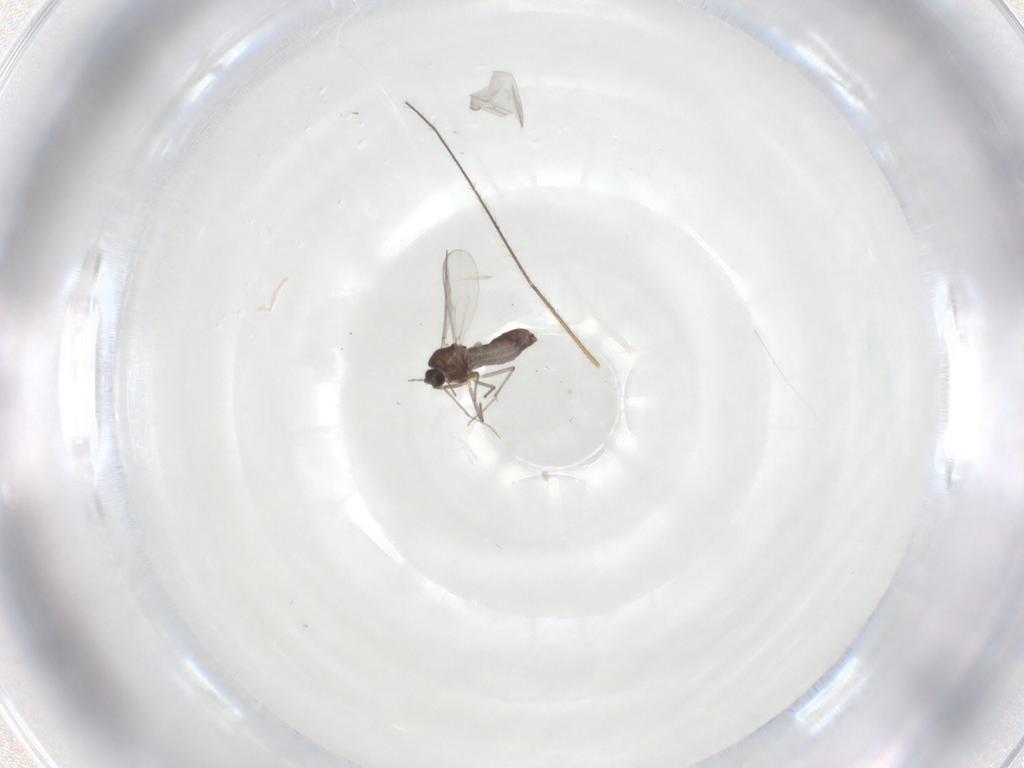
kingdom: Animalia
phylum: Arthropoda
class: Insecta
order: Diptera
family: Chironomidae
